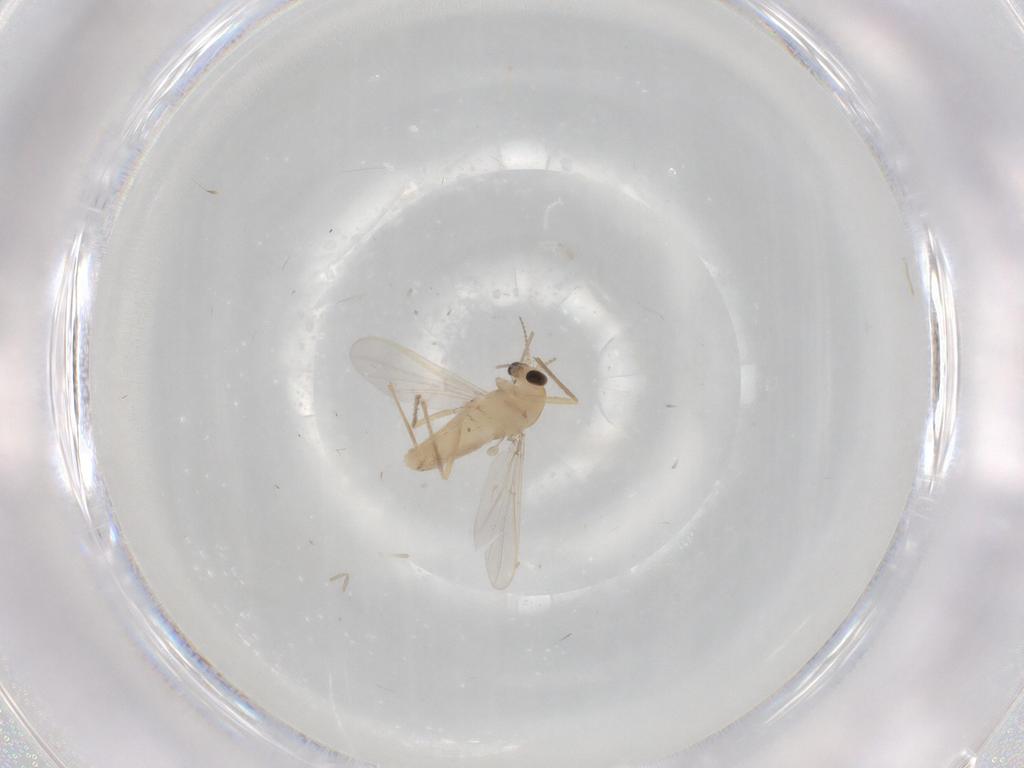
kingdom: Animalia
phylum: Arthropoda
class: Insecta
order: Diptera
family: Chironomidae
